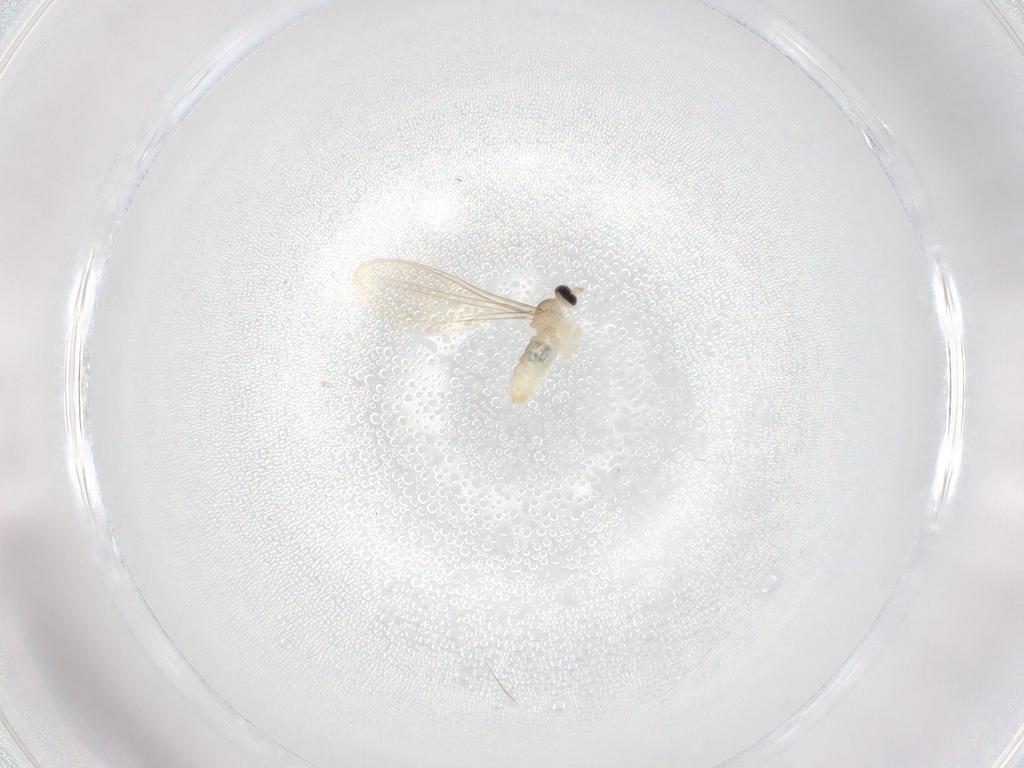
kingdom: Animalia
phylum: Arthropoda
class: Insecta
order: Diptera
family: Cecidomyiidae
